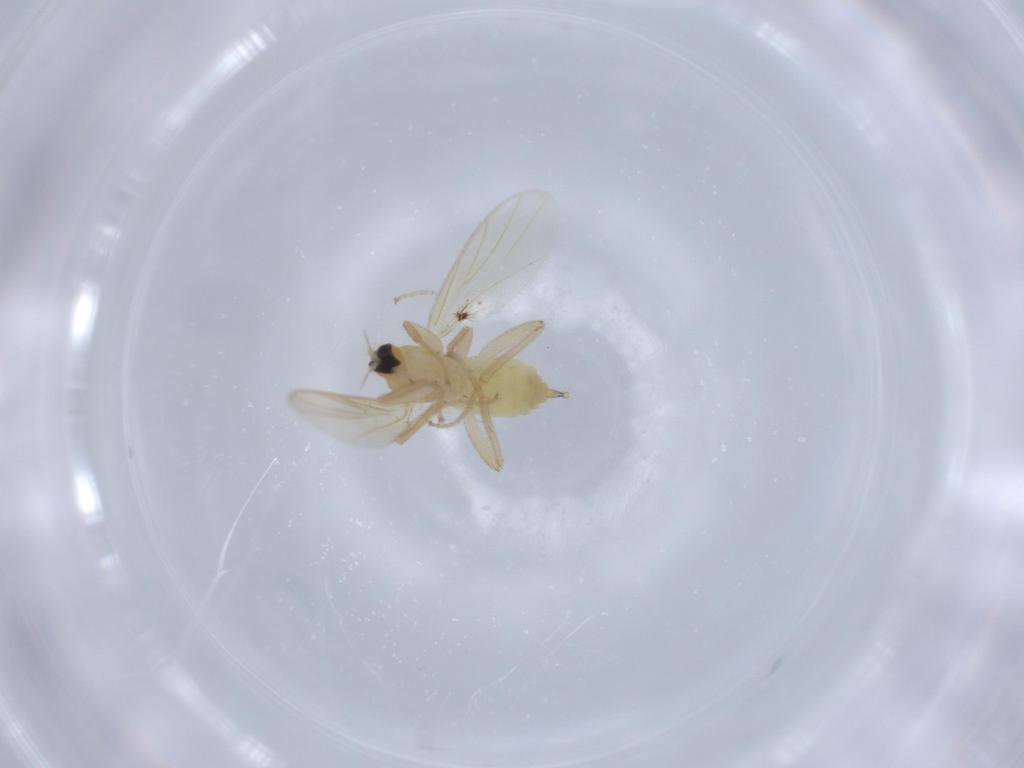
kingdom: Animalia
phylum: Arthropoda
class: Insecta
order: Diptera
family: Hybotidae
